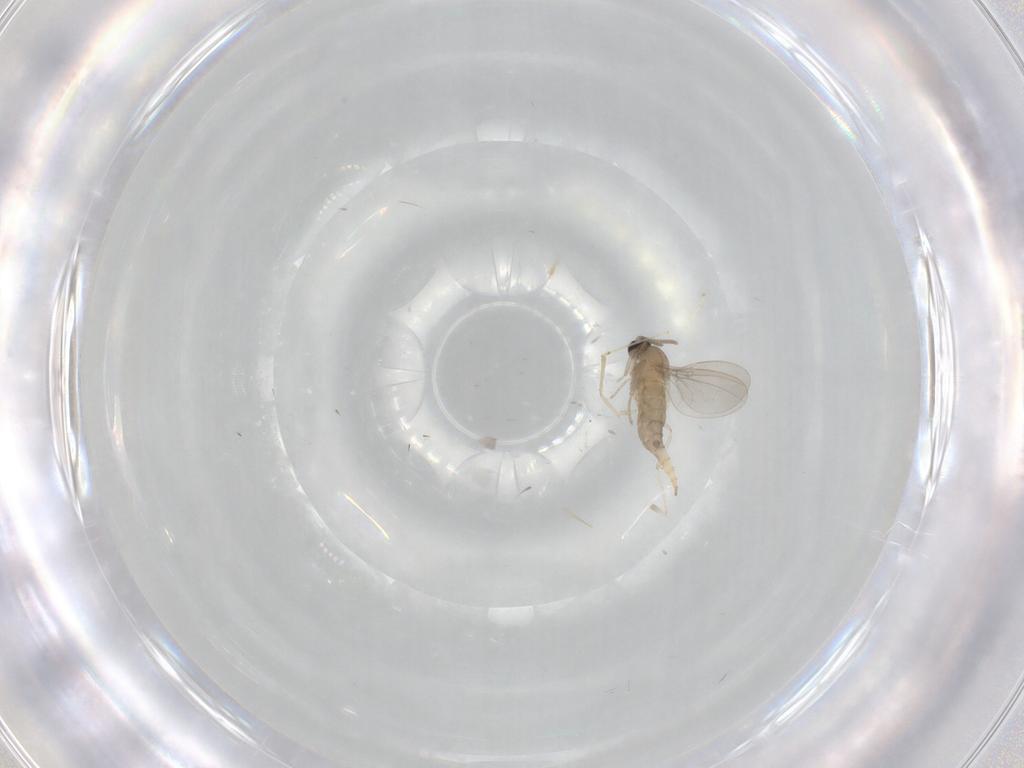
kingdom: Animalia
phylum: Arthropoda
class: Insecta
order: Diptera
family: Cecidomyiidae
